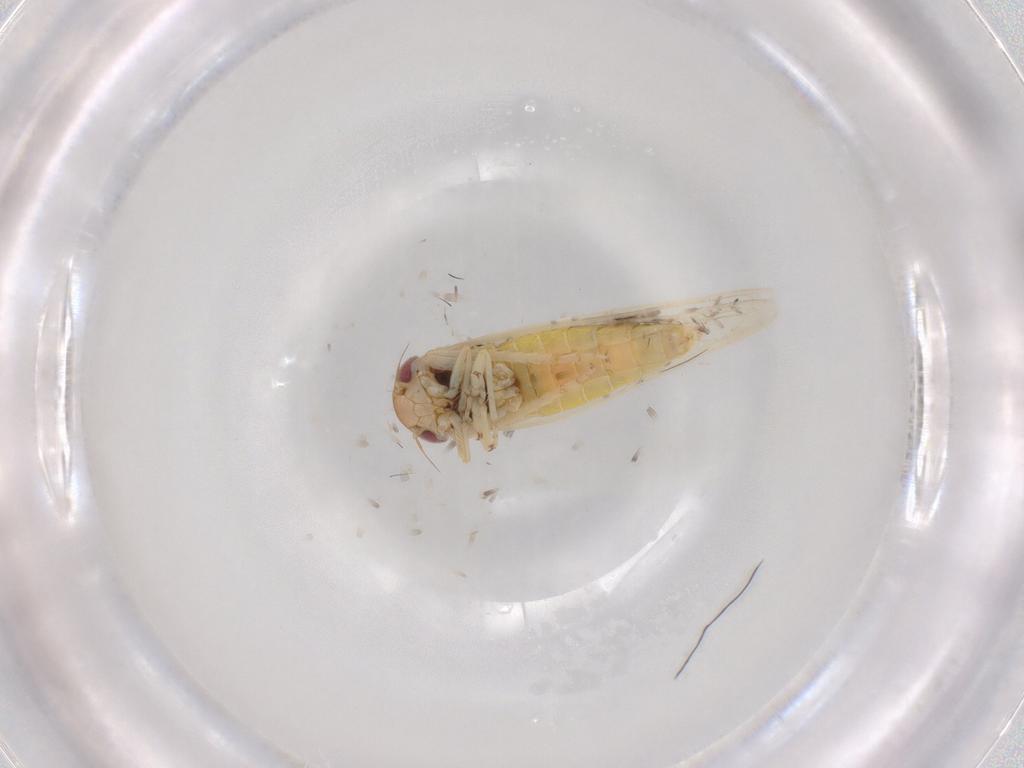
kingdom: Animalia
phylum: Arthropoda
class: Insecta
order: Hemiptera
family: Cicadellidae
